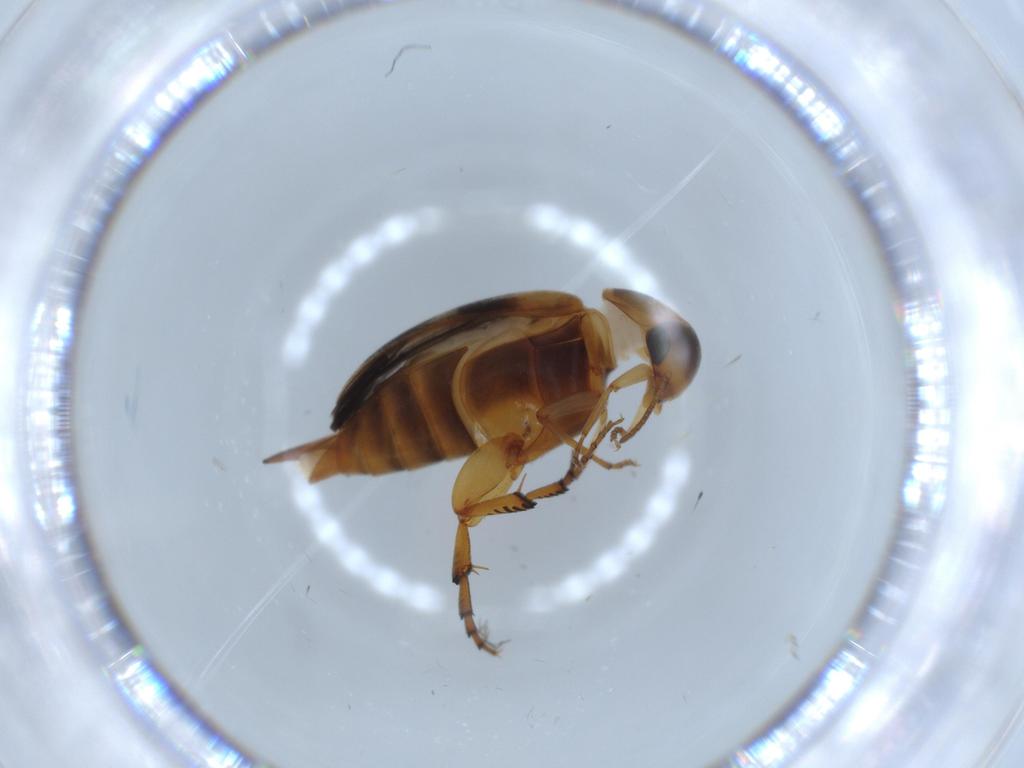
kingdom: Animalia
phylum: Arthropoda
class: Insecta
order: Coleoptera
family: Mordellidae
